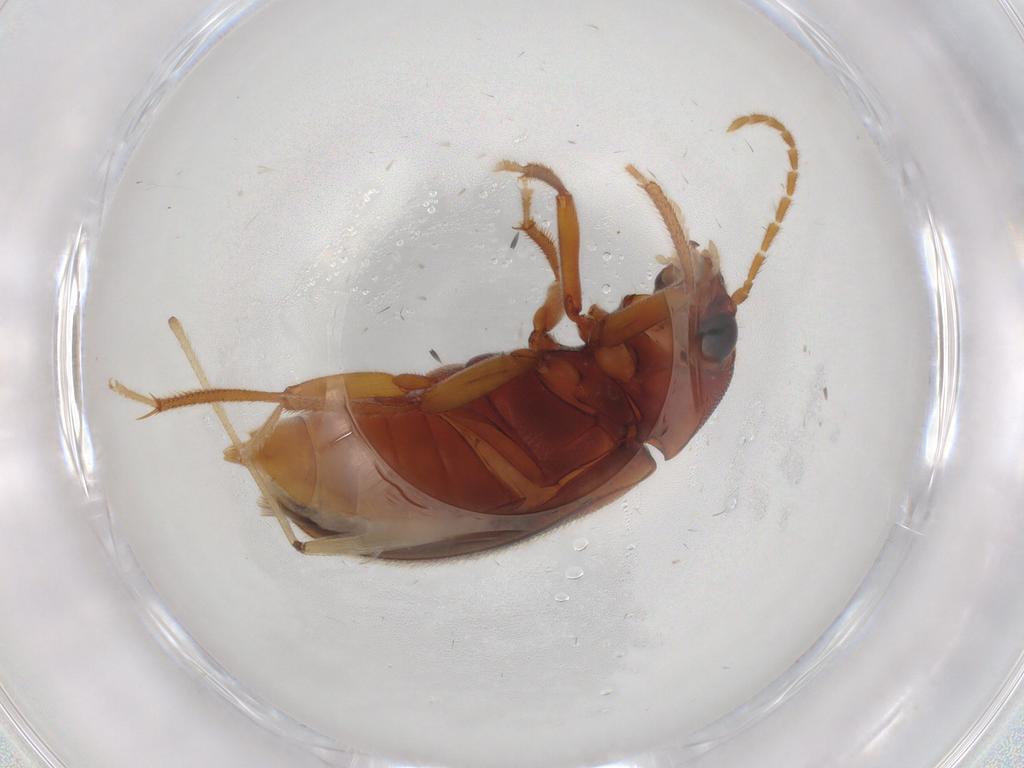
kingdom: Animalia
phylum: Arthropoda
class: Insecta
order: Coleoptera
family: Ptilodactylidae
